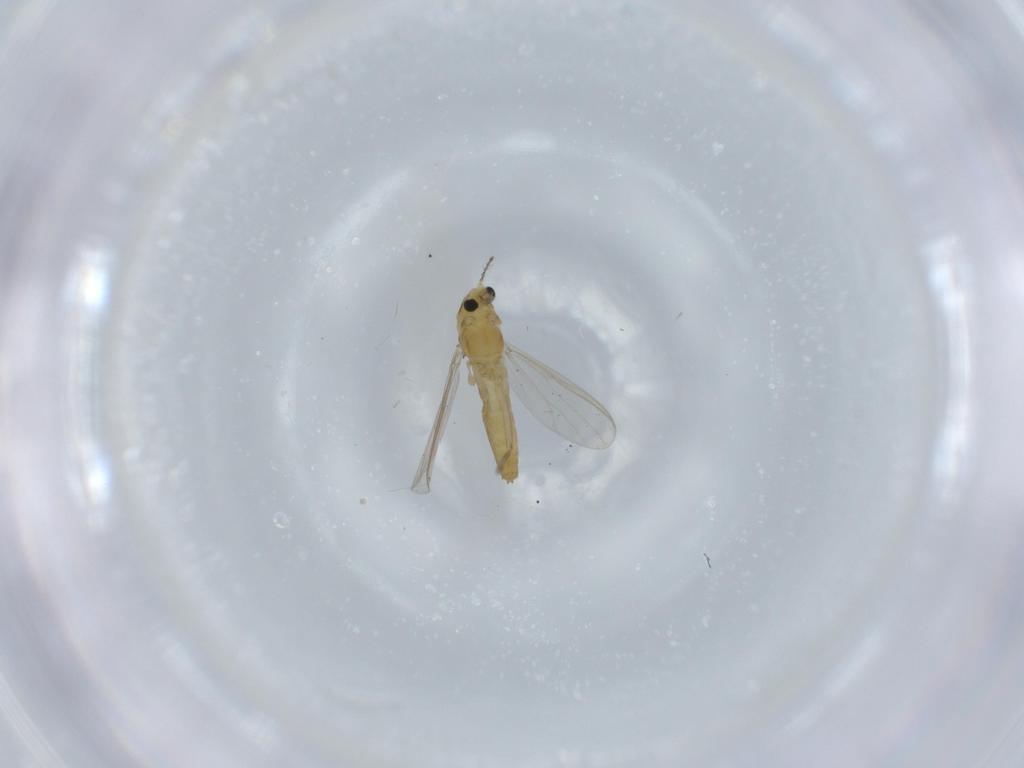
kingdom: Animalia
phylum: Arthropoda
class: Insecta
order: Diptera
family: Chironomidae
